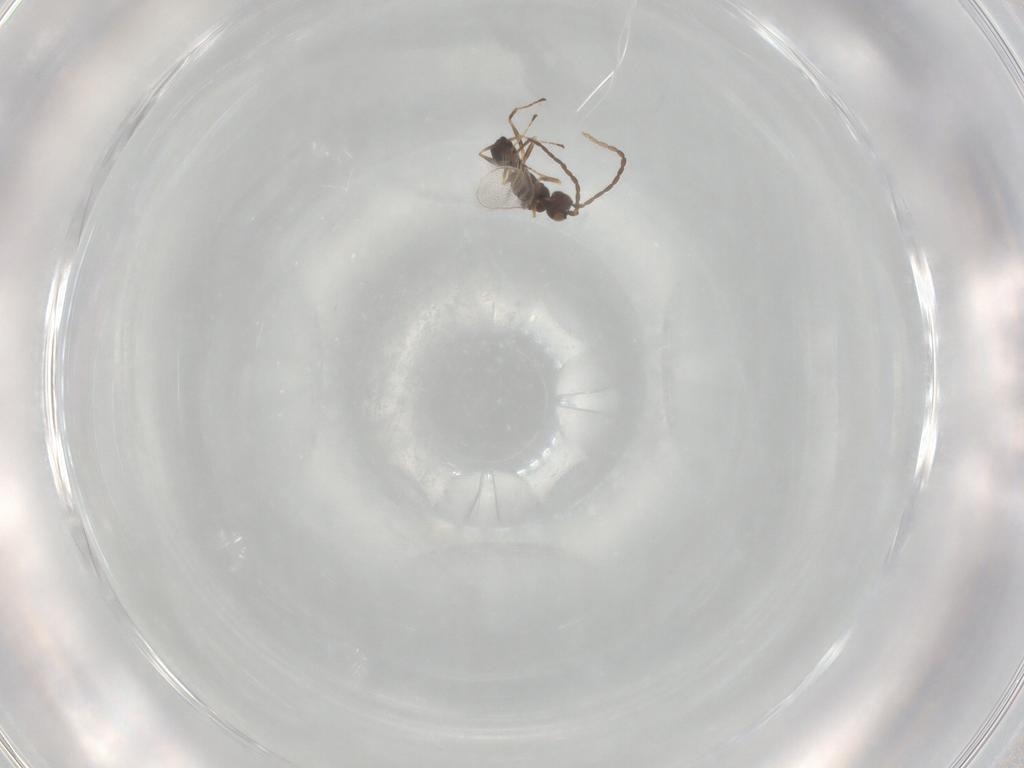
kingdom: Animalia
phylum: Arthropoda
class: Insecta
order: Hymenoptera
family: Mymaridae
